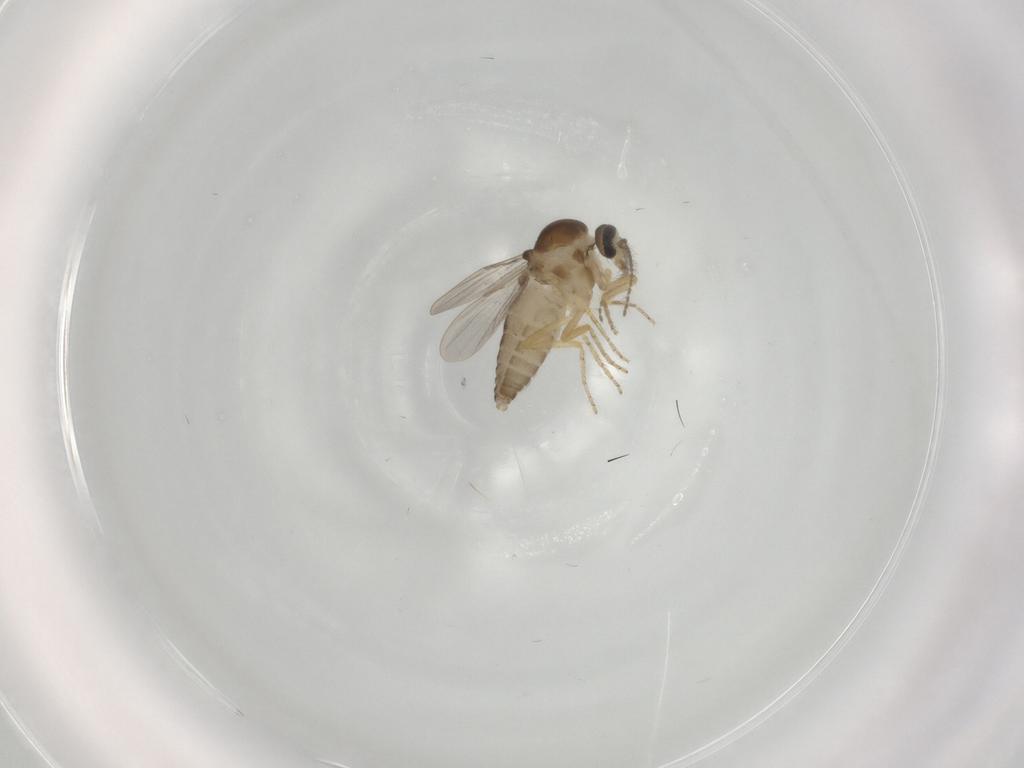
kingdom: Animalia
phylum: Arthropoda
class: Insecta
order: Diptera
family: Ceratopogonidae
